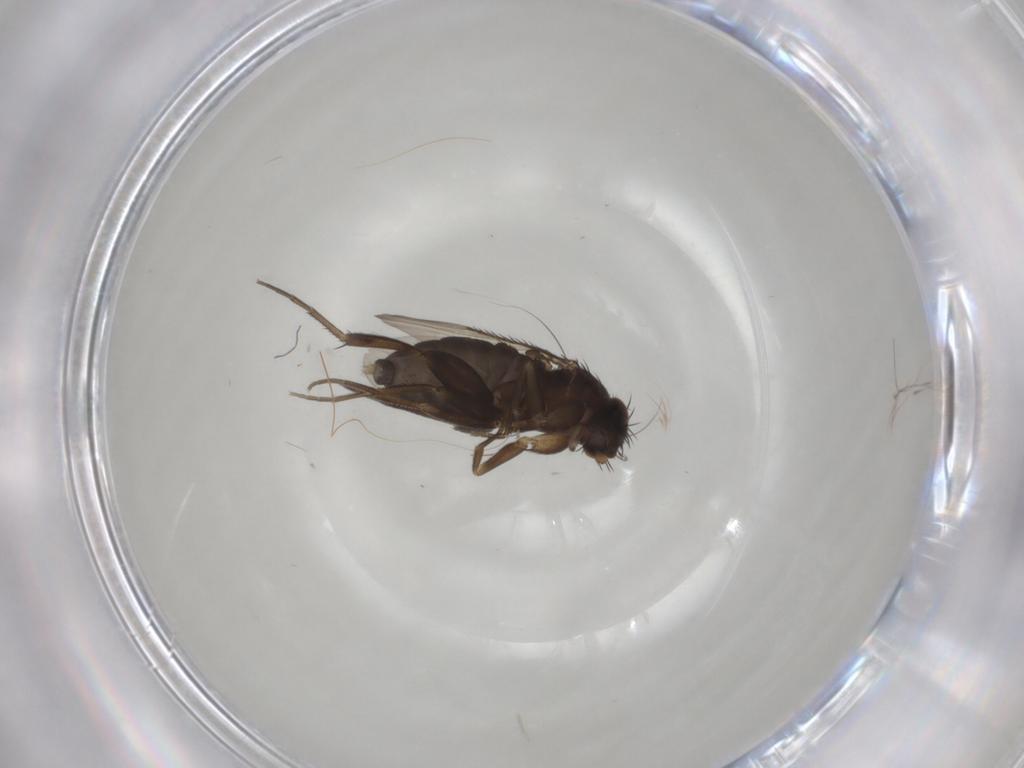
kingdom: Animalia
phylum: Arthropoda
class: Insecta
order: Diptera
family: Phoridae
